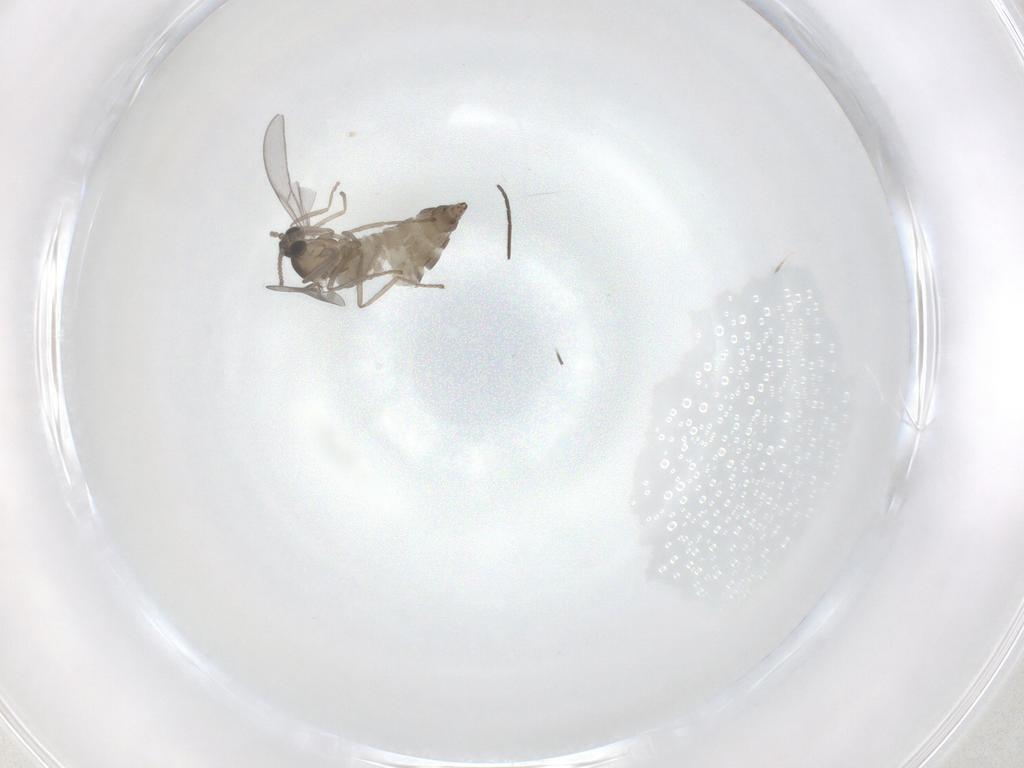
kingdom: Animalia
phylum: Arthropoda
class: Insecta
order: Diptera
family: Cecidomyiidae
